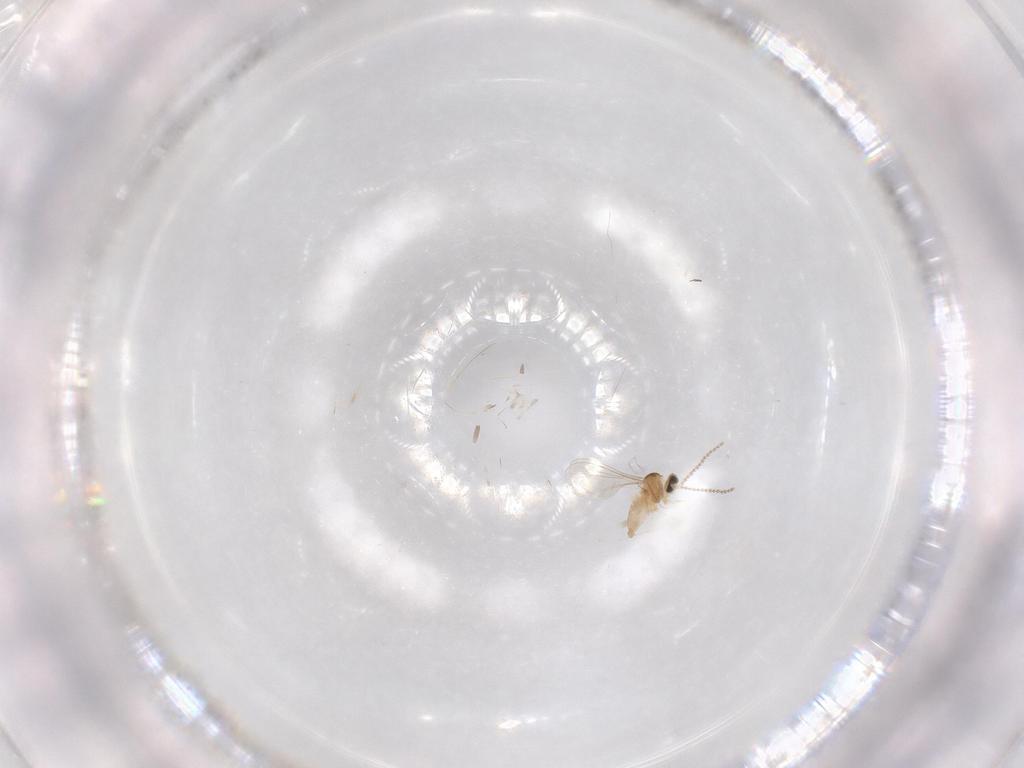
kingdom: Animalia
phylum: Arthropoda
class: Insecta
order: Diptera
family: Cecidomyiidae
